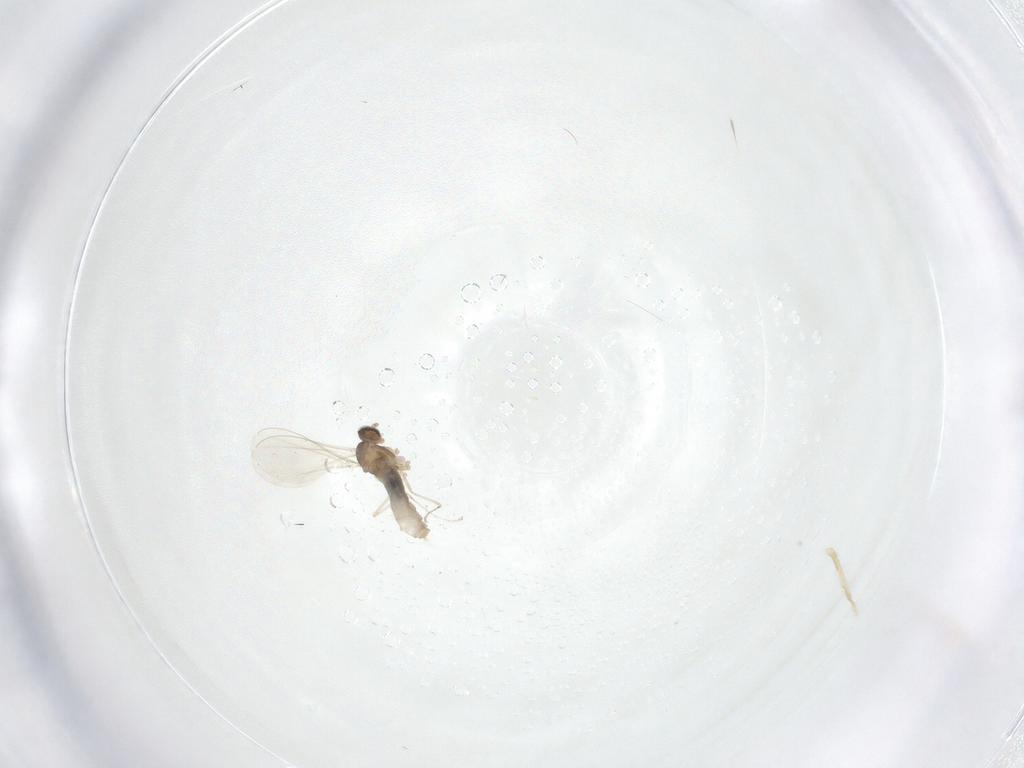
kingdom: Animalia
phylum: Arthropoda
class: Insecta
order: Diptera
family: Cecidomyiidae
